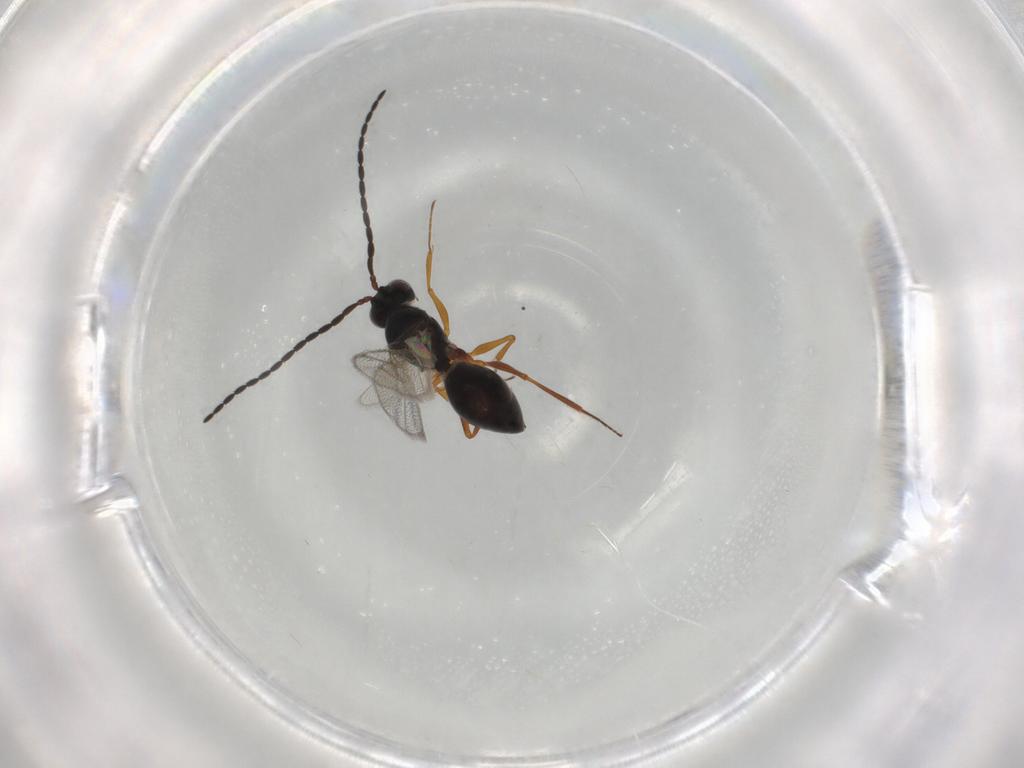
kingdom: Animalia
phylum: Arthropoda
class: Insecta
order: Hymenoptera
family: Figitidae
